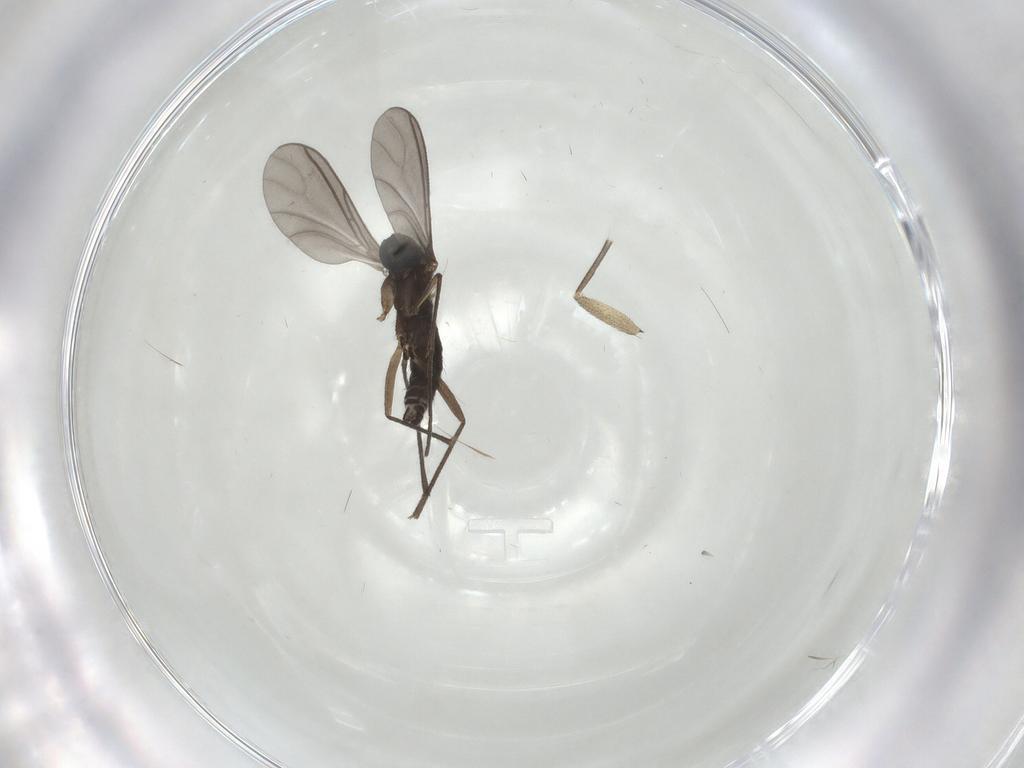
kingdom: Animalia
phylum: Arthropoda
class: Insecta
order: Diptera
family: Sciaridae
